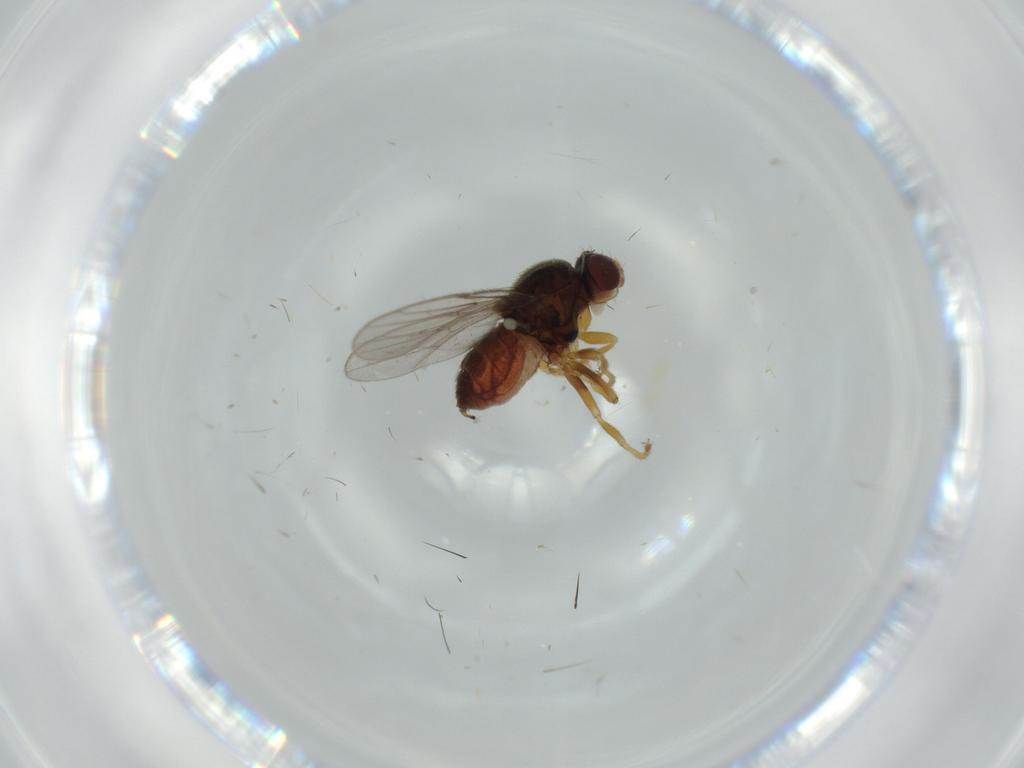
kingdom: Animalia
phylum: Arthropoda
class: Insecta
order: Diptera
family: Chloropidae
